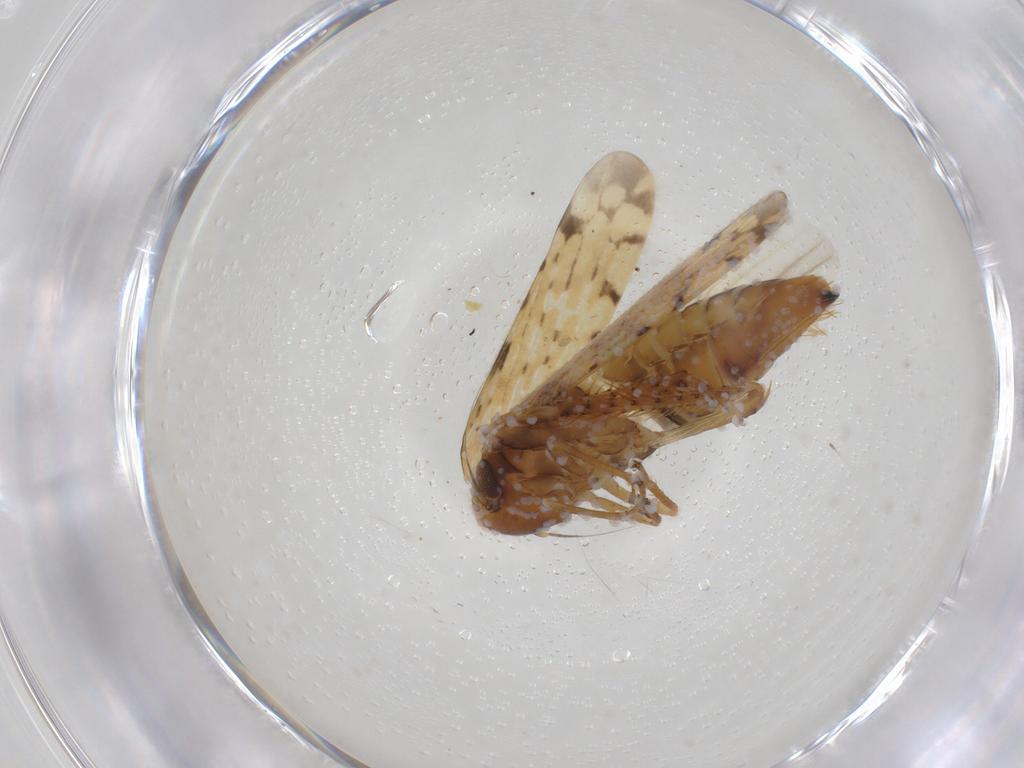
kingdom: Animalia
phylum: Arthropoda
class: Insecta
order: Hemiptera
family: Cicadellidae
